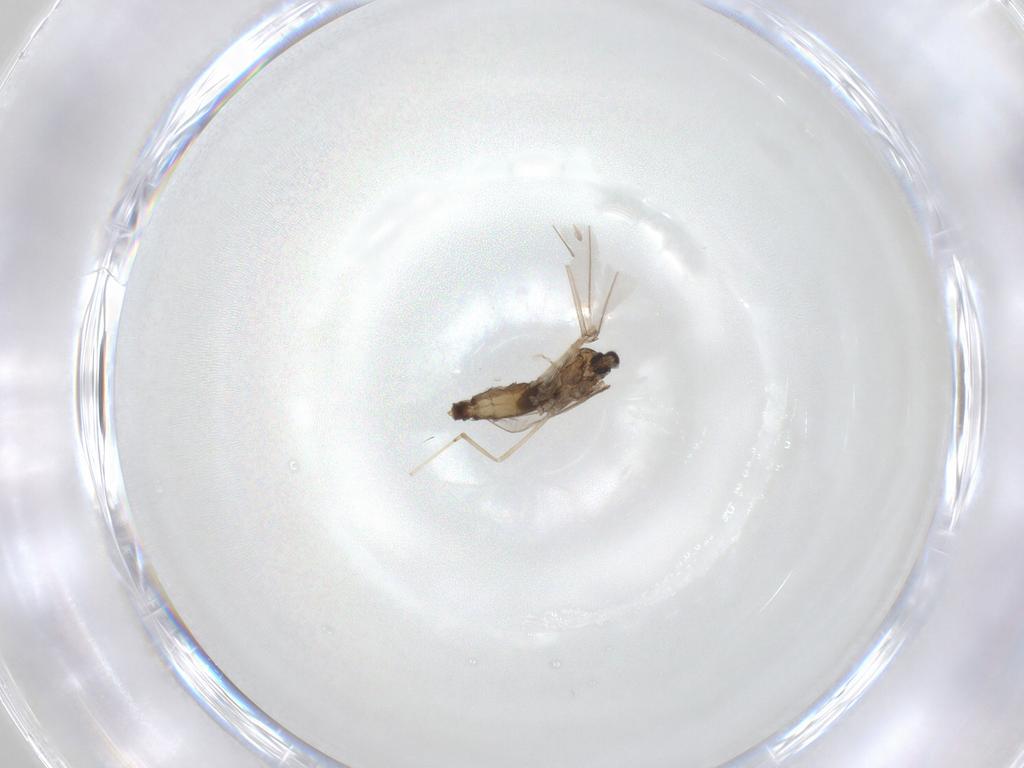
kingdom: Animalia
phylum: Arthropoda
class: Insecta
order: Diptera
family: Cecidomyiidae
